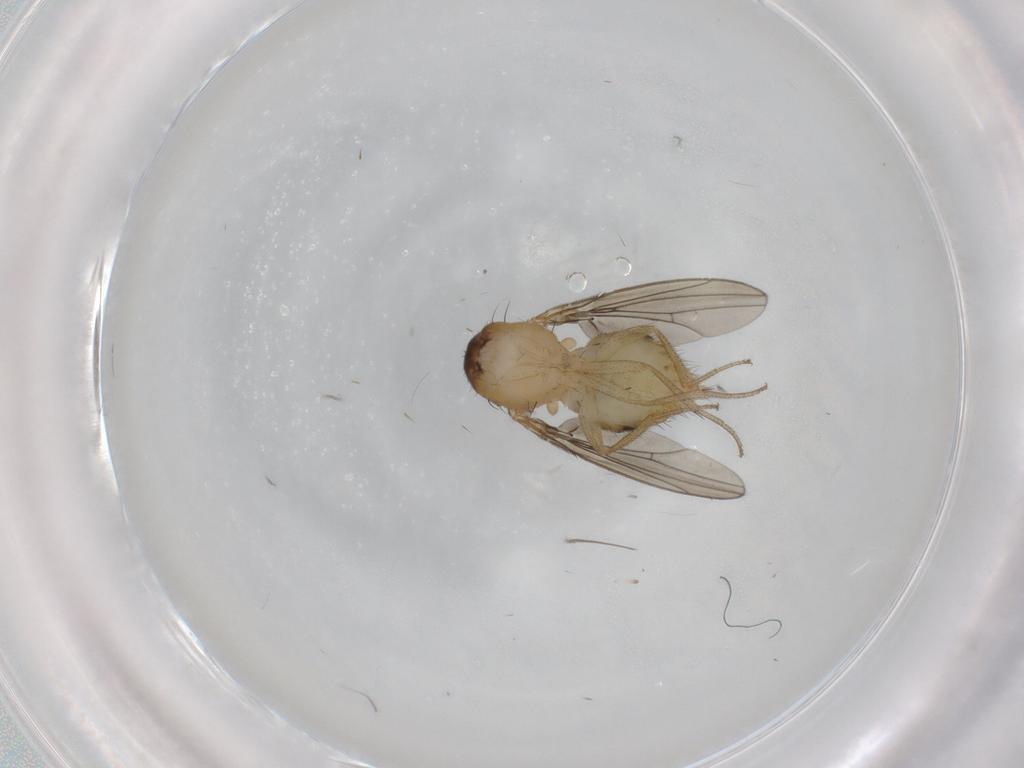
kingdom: Animalia
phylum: Arthropoda
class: Insecta
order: Diptera
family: Drosophilidae
